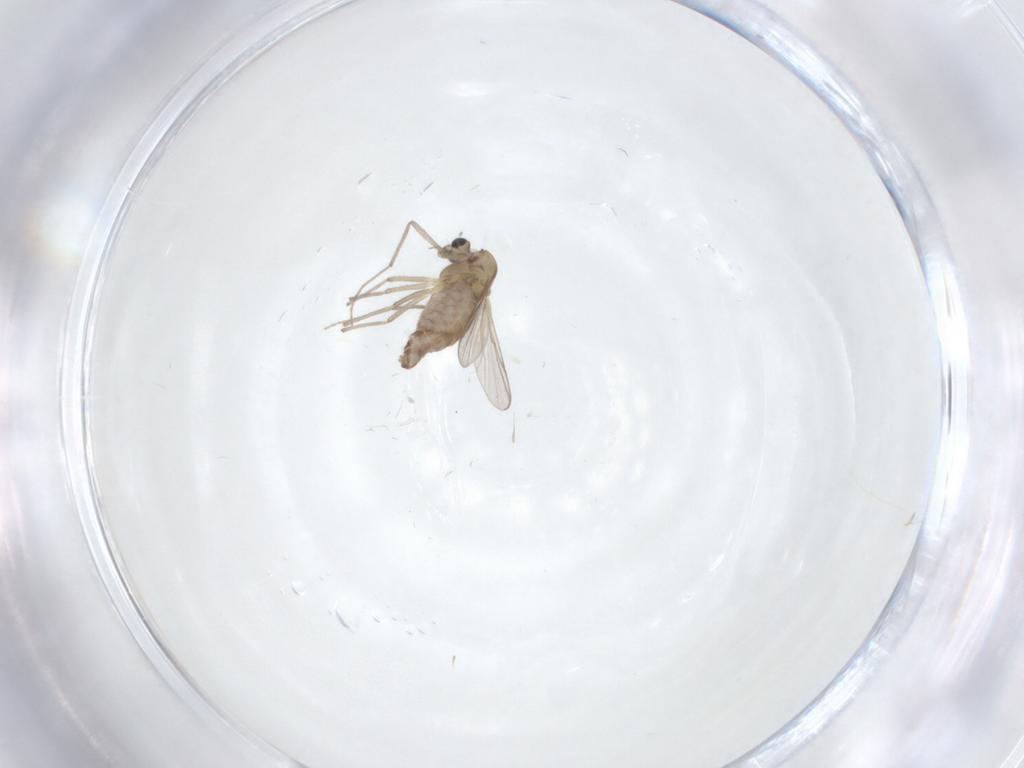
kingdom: Animalia
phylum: Arthropoda
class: Insecta
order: Diptera
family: Chironomidae
